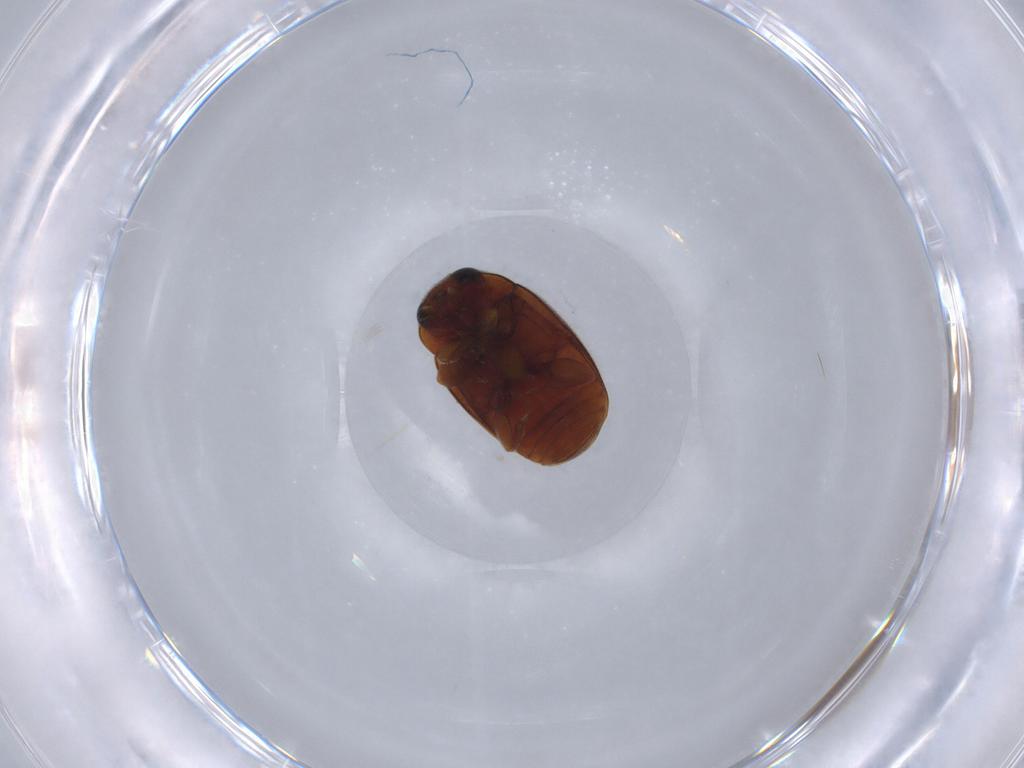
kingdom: Animalia
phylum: Arthropoda
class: Insecta
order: Coleoptera
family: Coccinellidae
